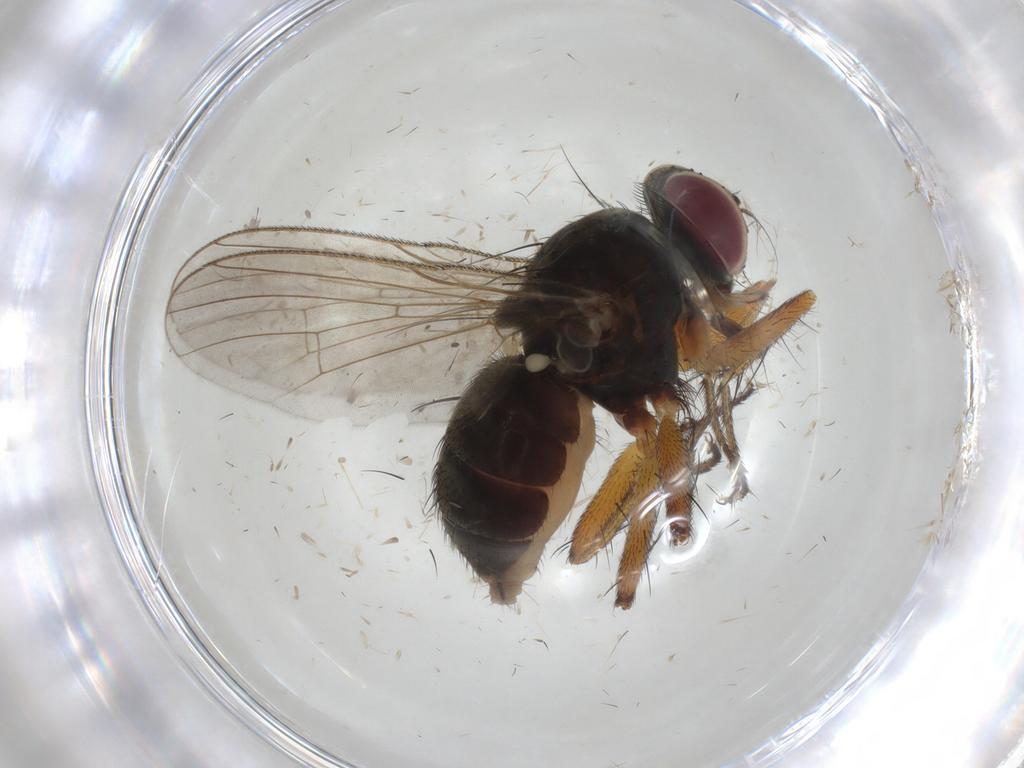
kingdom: Animalia
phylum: Arthropoda
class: Insecta
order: Diptera
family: Muscidae
